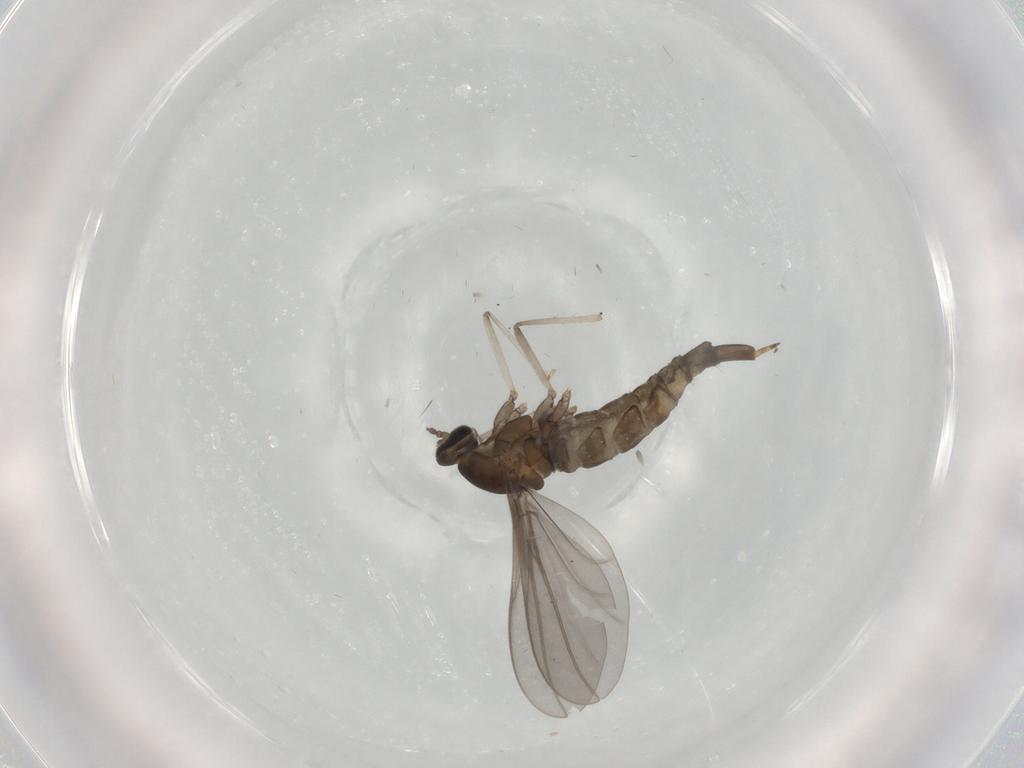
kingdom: Animalia
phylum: Arthropoda
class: Insecta
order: Diptera
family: Cecidomyiidae
